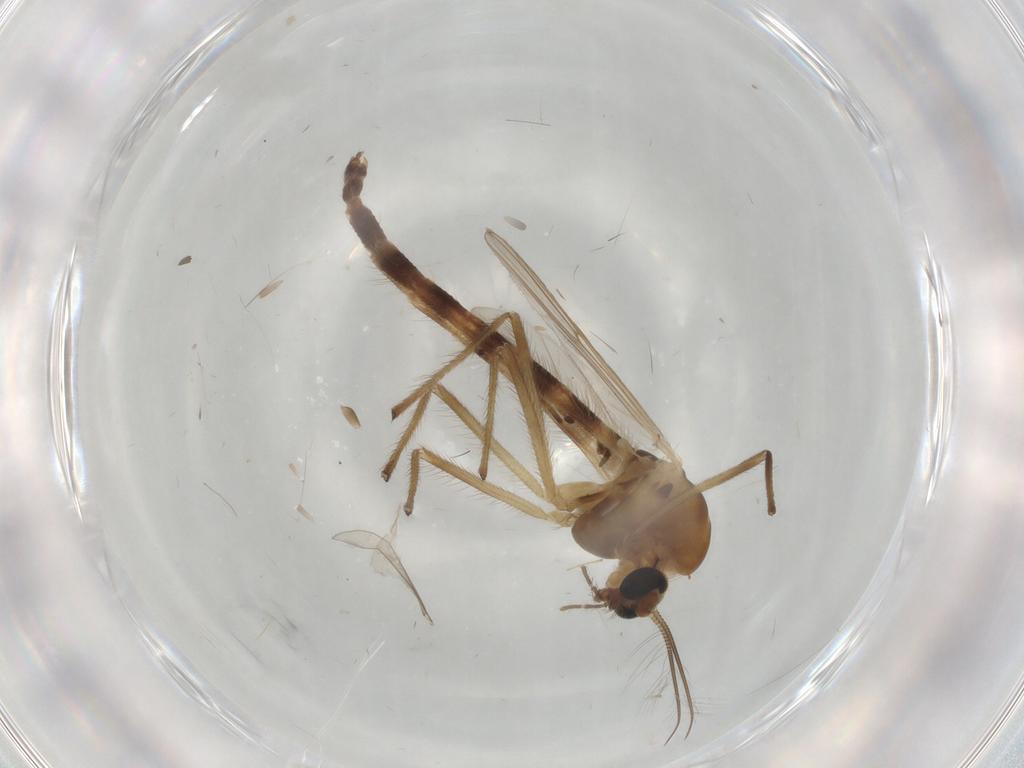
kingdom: Animalia
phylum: Arthropoda
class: Insecta
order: Diptera
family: Chironomidae
